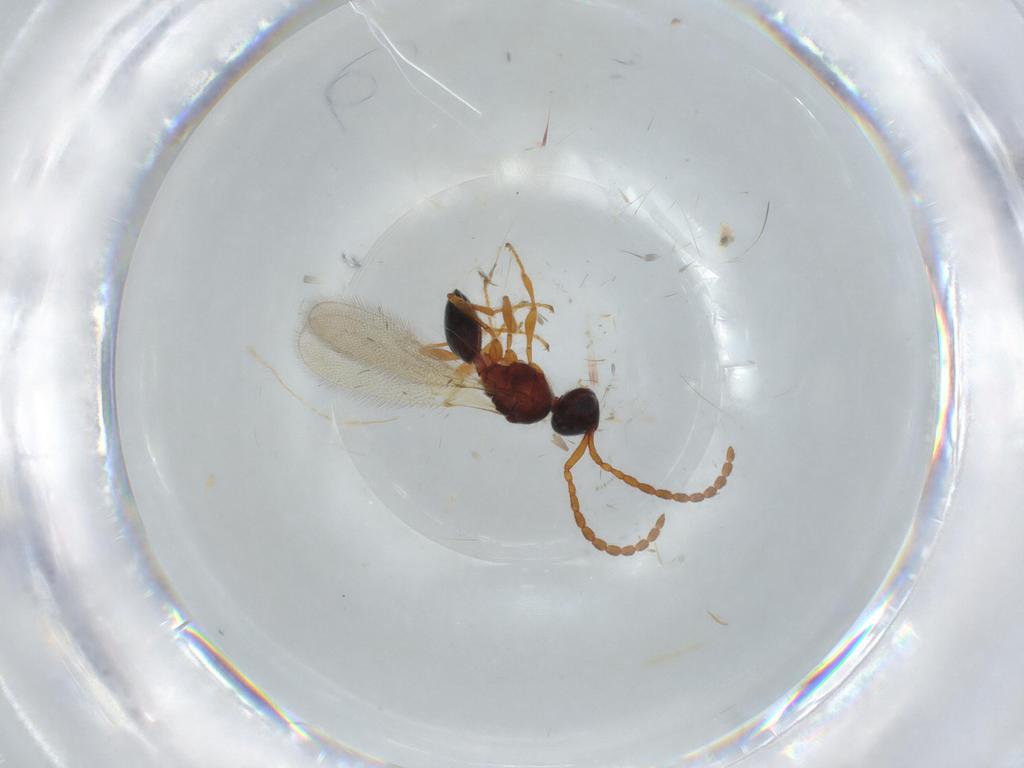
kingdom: Animalia
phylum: Arthropoda
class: Insecta
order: Hymenoptera
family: Diapriidae
